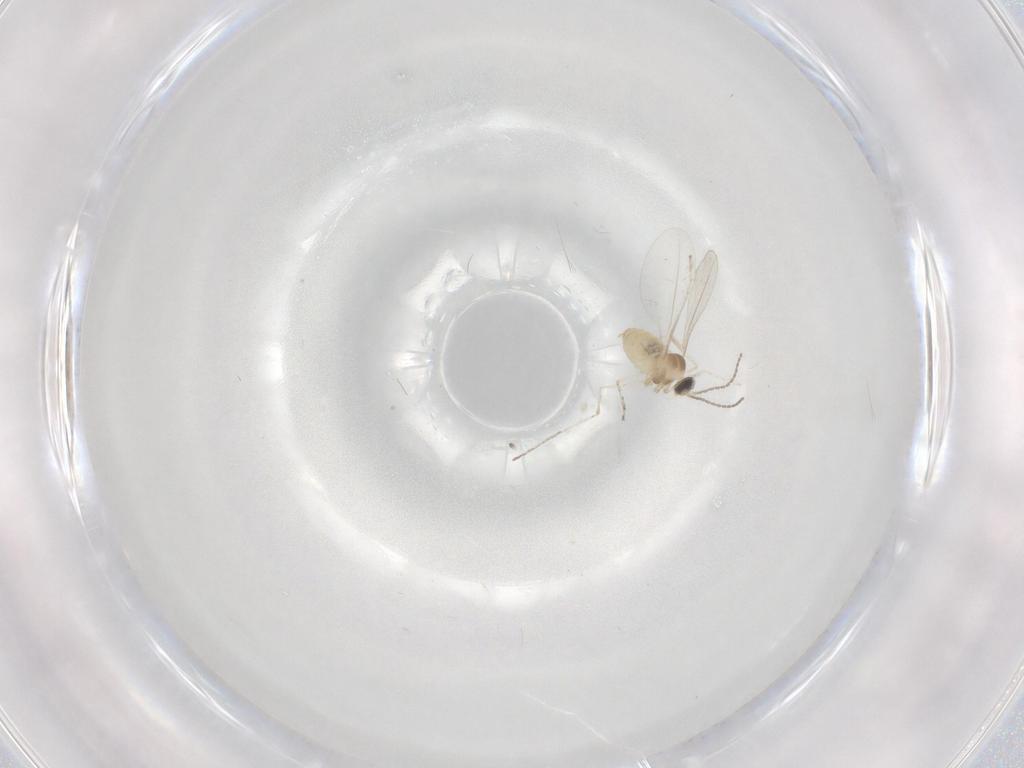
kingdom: Animalia
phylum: Arthropoda
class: Insecta
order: Diptera
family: Cecidomyiidae
